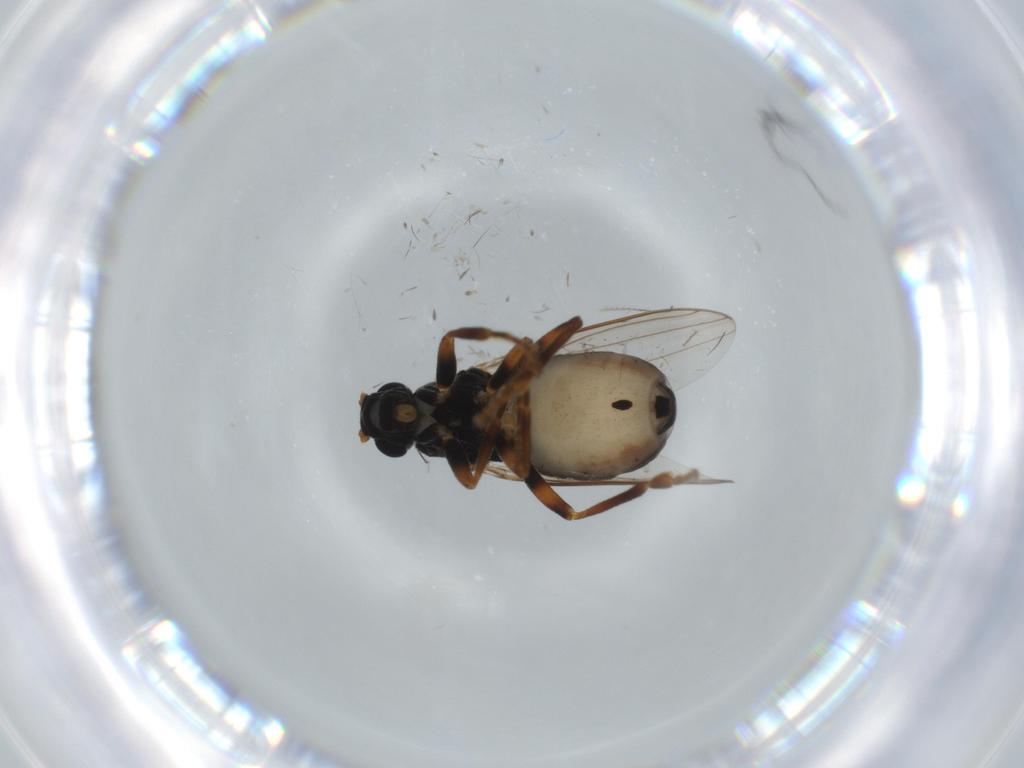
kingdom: Animalia
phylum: Arthropoda
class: Insecta
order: Diptera
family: Sphaeroceridae
